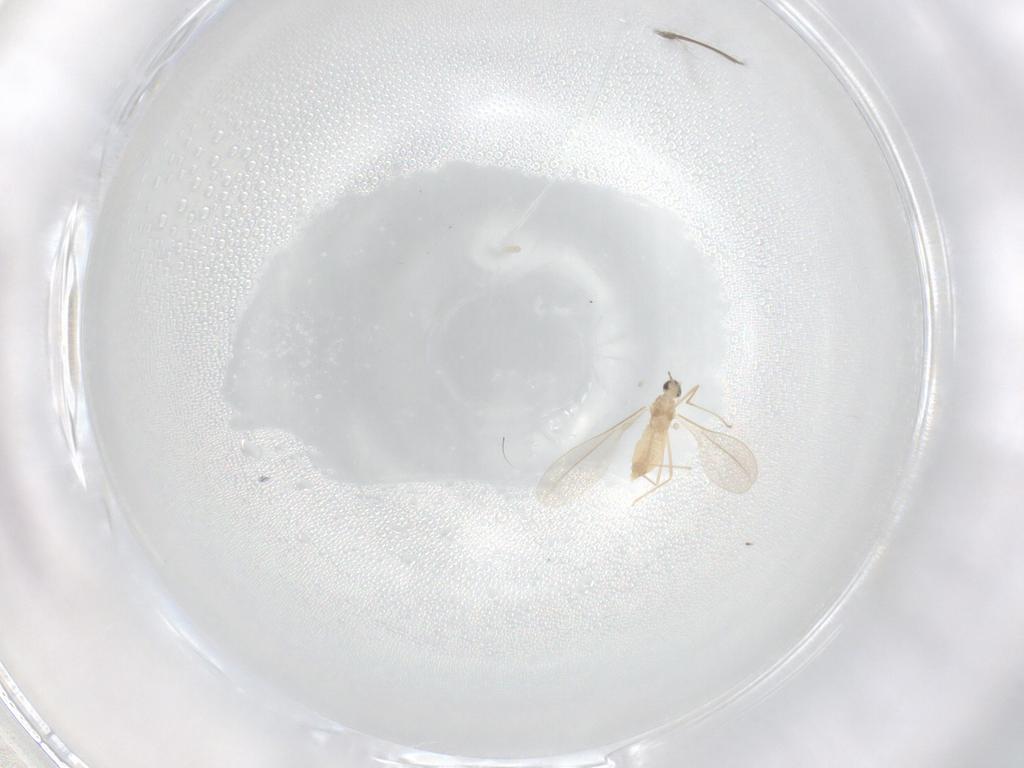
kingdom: Animalia
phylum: Arthropoda
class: Insecta
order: Diptera
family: Cecidomyiidae
